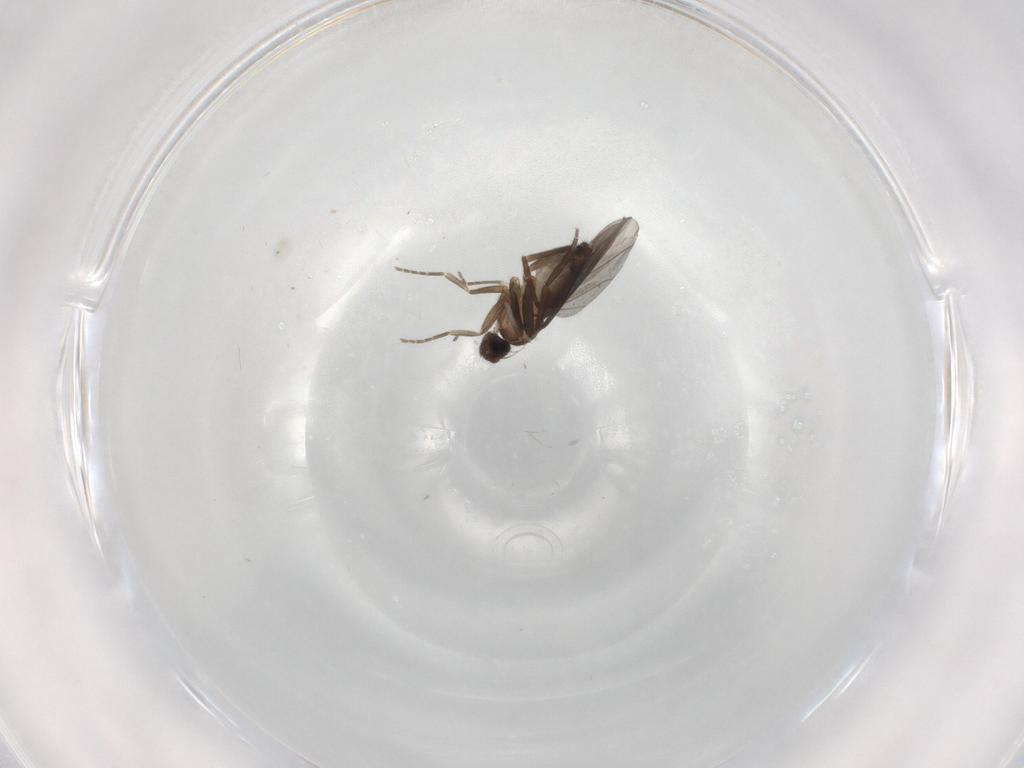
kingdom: Animalia
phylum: Arthropoda
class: Insecta
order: Diptera
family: Phoridae
